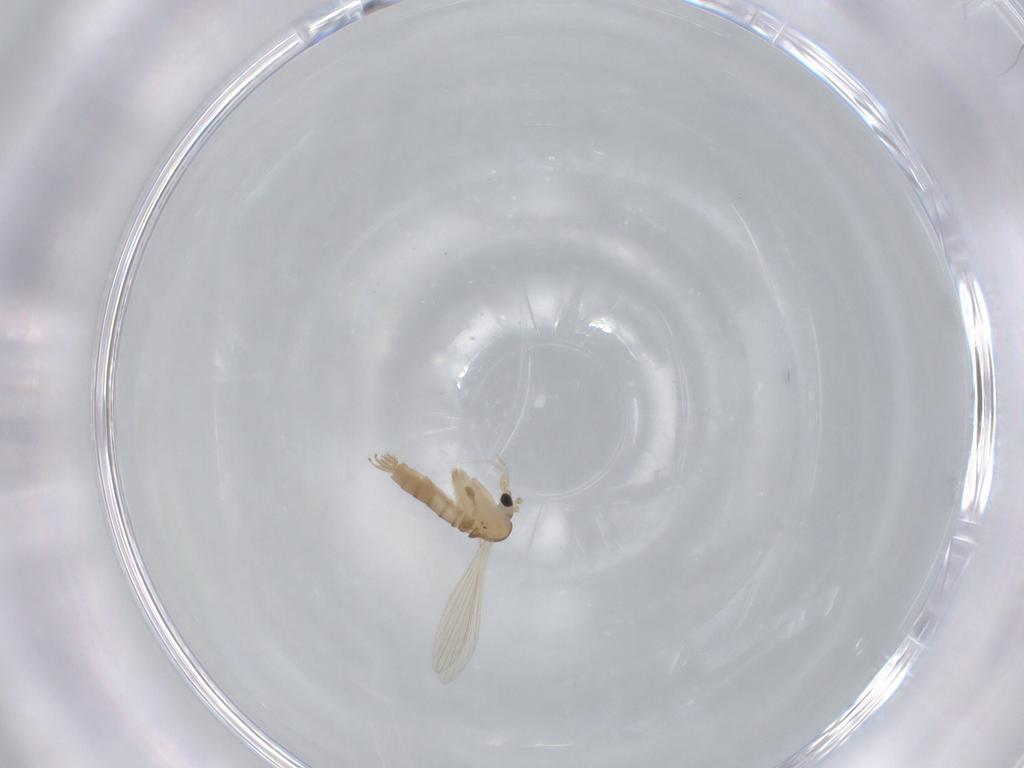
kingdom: Animalia
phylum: Arthropoda
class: Insecta
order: Diptera
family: Psychodidae
